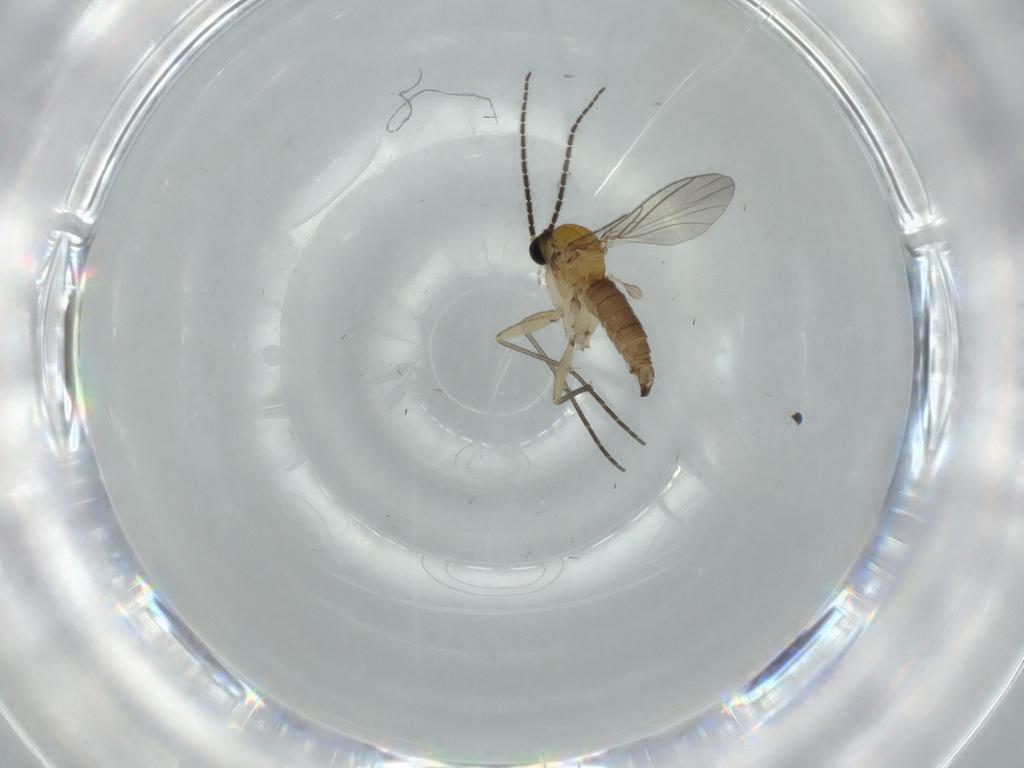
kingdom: Animalia
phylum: Arthropoda
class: Insecta
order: Diptera
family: Sciaridae
